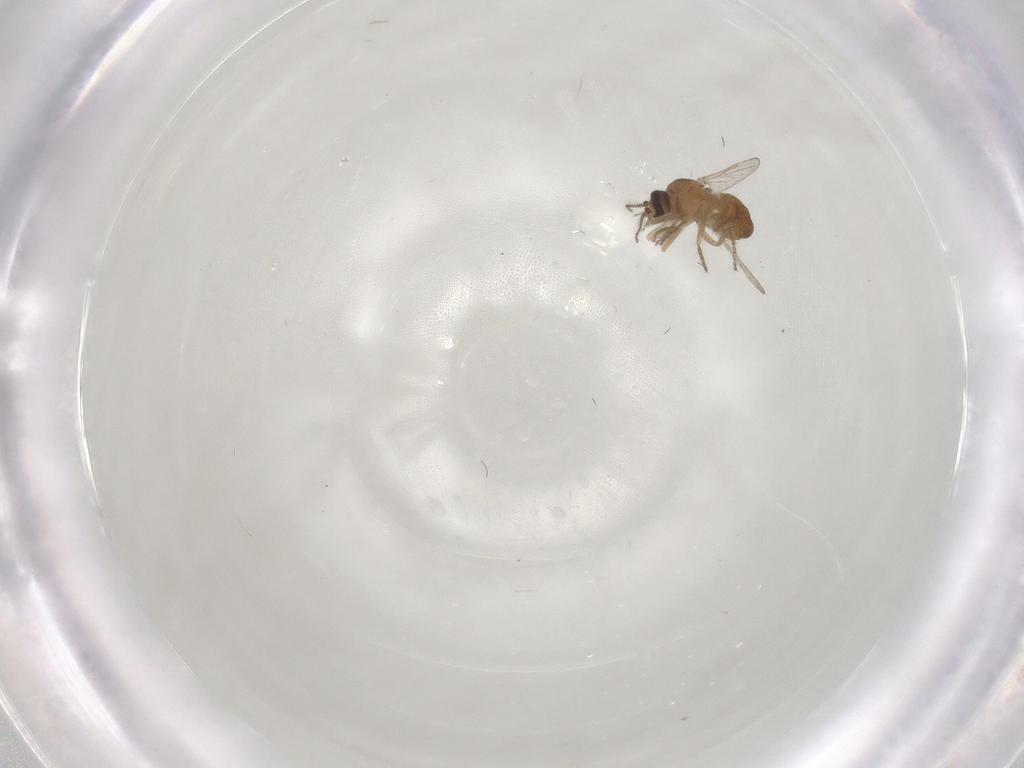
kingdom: Animalia
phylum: Arthropoda
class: Insecta
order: Diptera
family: Ceratopogonidae
